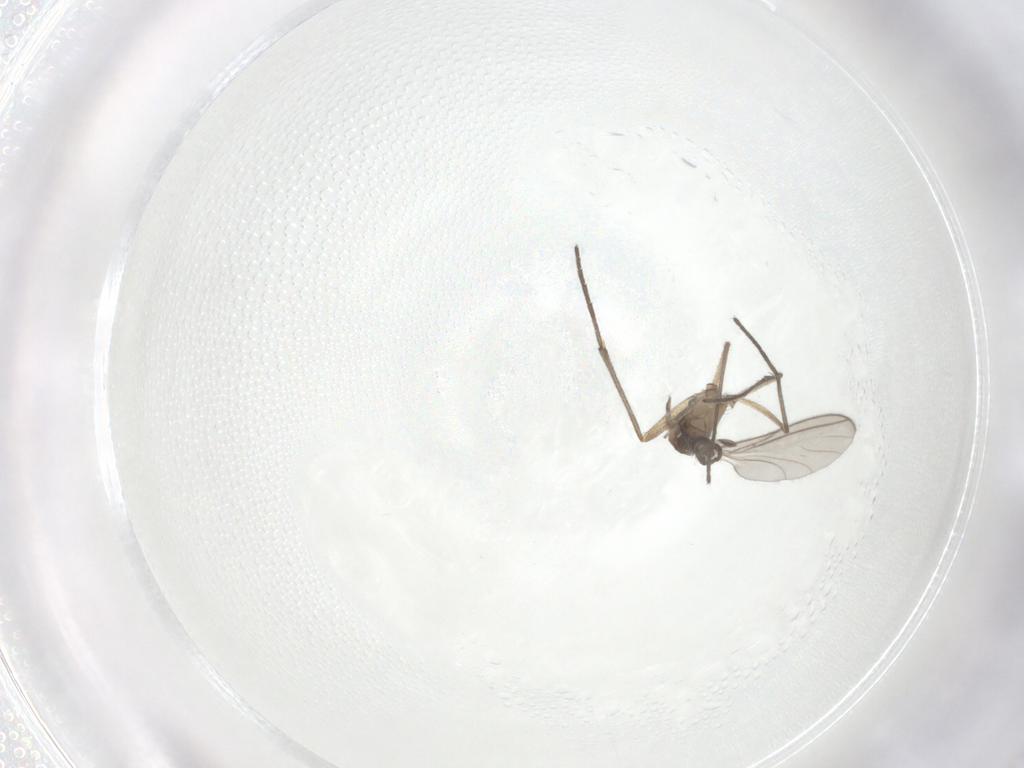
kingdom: Animalia
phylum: Arthropoda
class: Insecta
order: Diptera
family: Sciaridae
